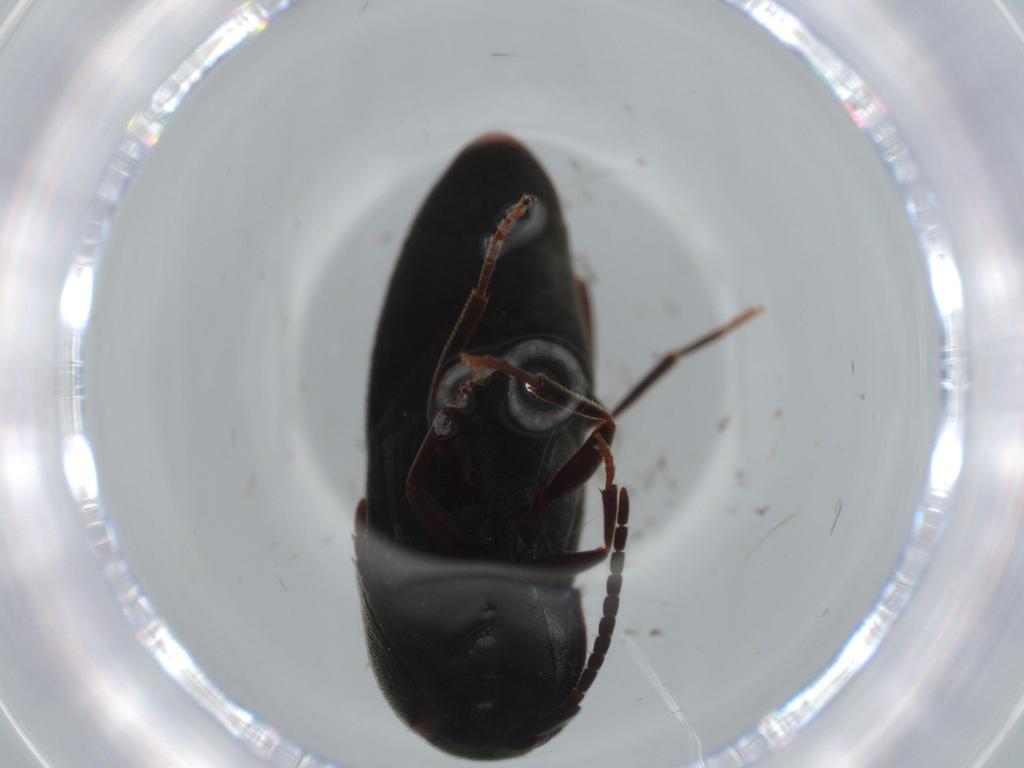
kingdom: Animalia
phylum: Arthropoda
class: Insecta
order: Coleoptera
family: Eucnemidae
